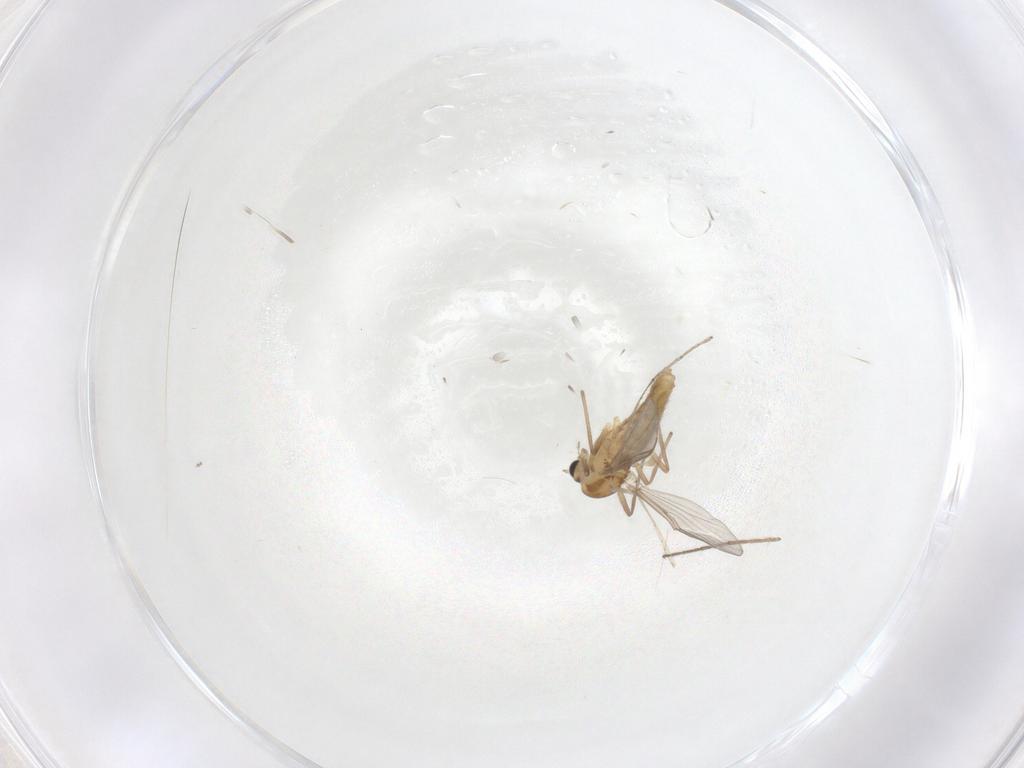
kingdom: Animalia
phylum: Arthropoda
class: Insecta
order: Diptera
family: Chironomidae
